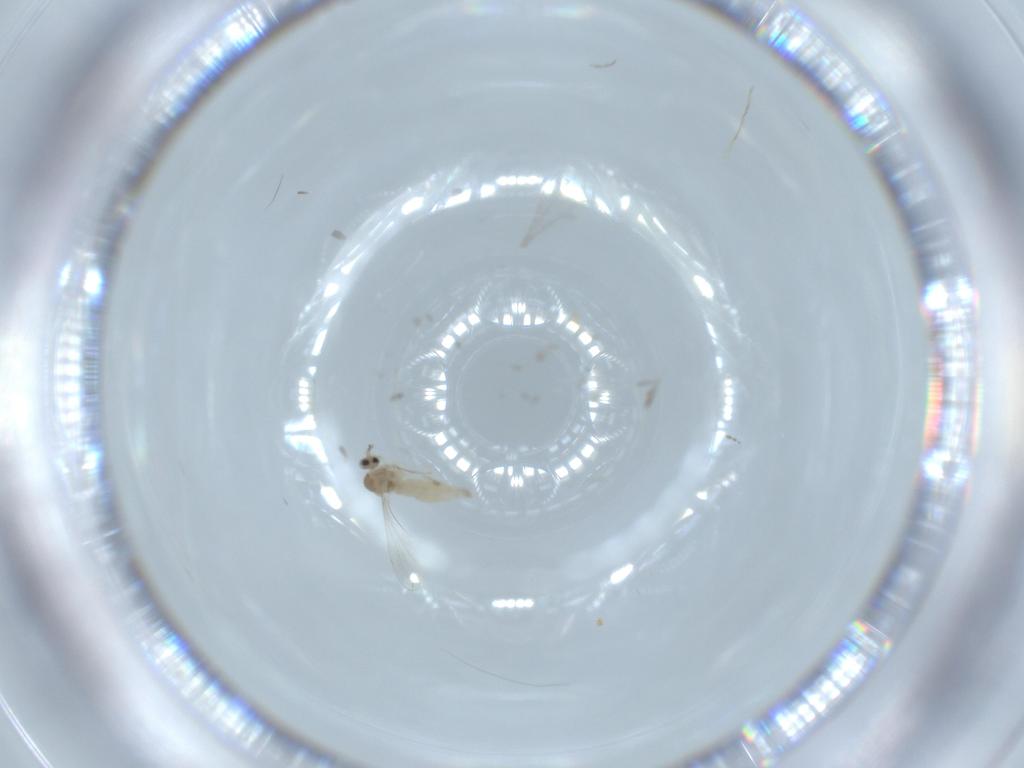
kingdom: Animalia
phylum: Arthropoda
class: Insecta
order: Diptera
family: Cecidomyiidae
